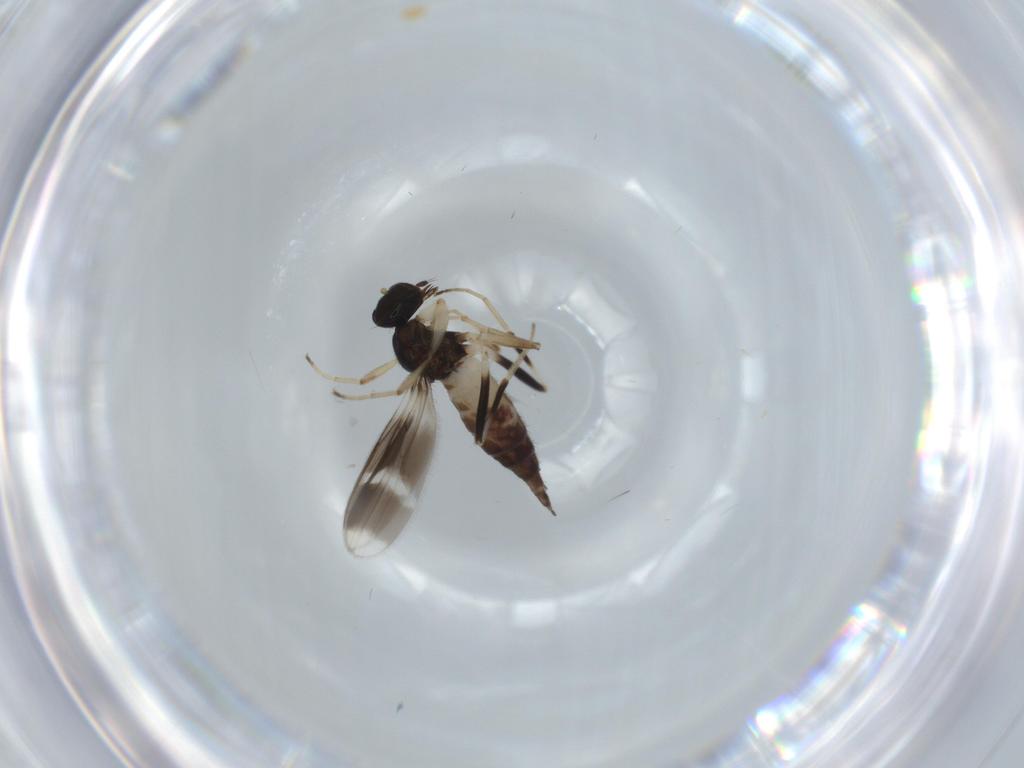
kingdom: Animalia
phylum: Arthropoda
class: Insecta
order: Diptera
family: Hybotidae
